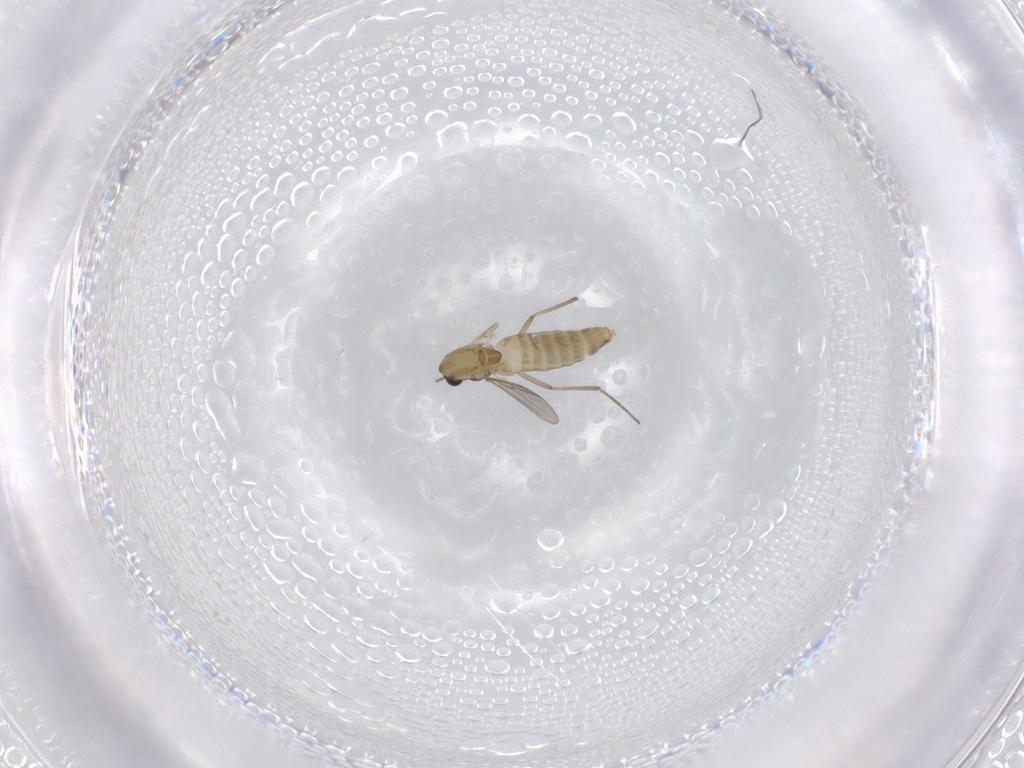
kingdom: Animalia
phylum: Arthropoda
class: Insecta
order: Diptera
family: Chironomidae
